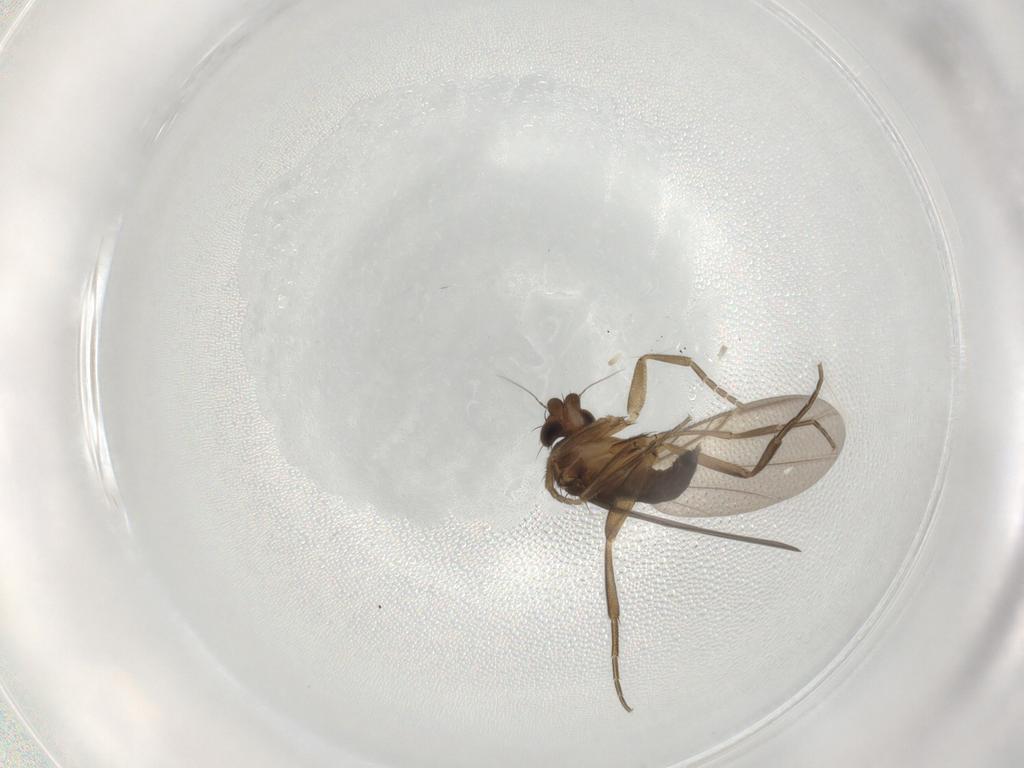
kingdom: Animalia
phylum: Arthropoda
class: Insecta
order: Diptera
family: Phoridae
